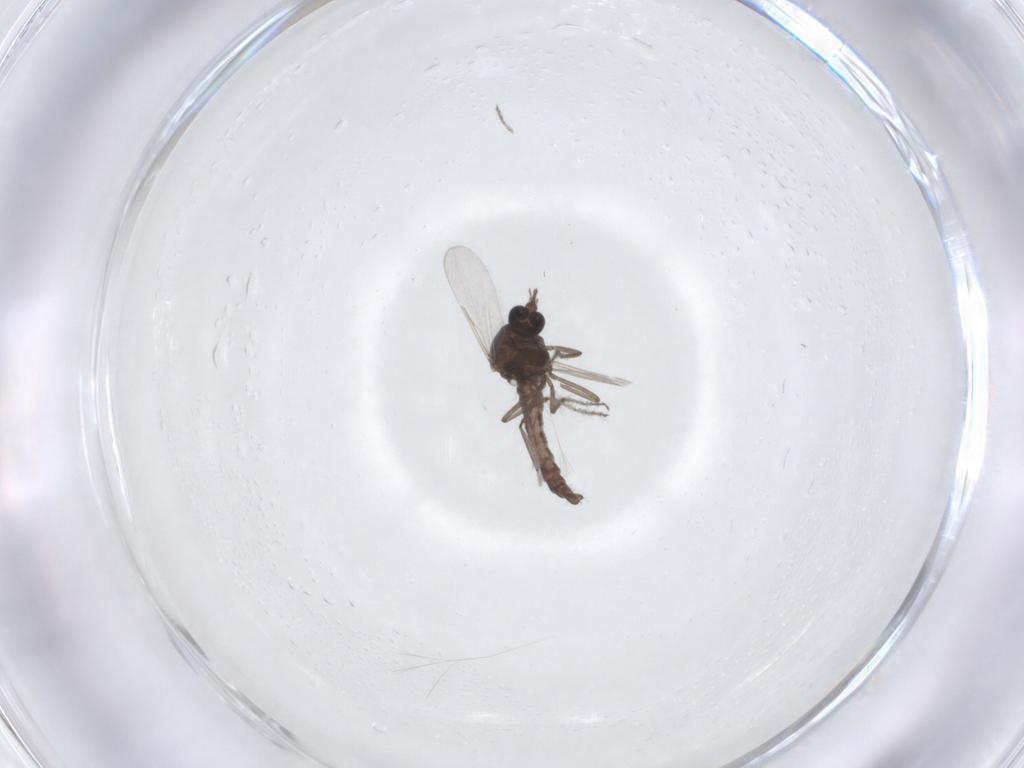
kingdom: Animalia
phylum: Arthropoda
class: Insecta
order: Diptera
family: Ceratopogonidae
